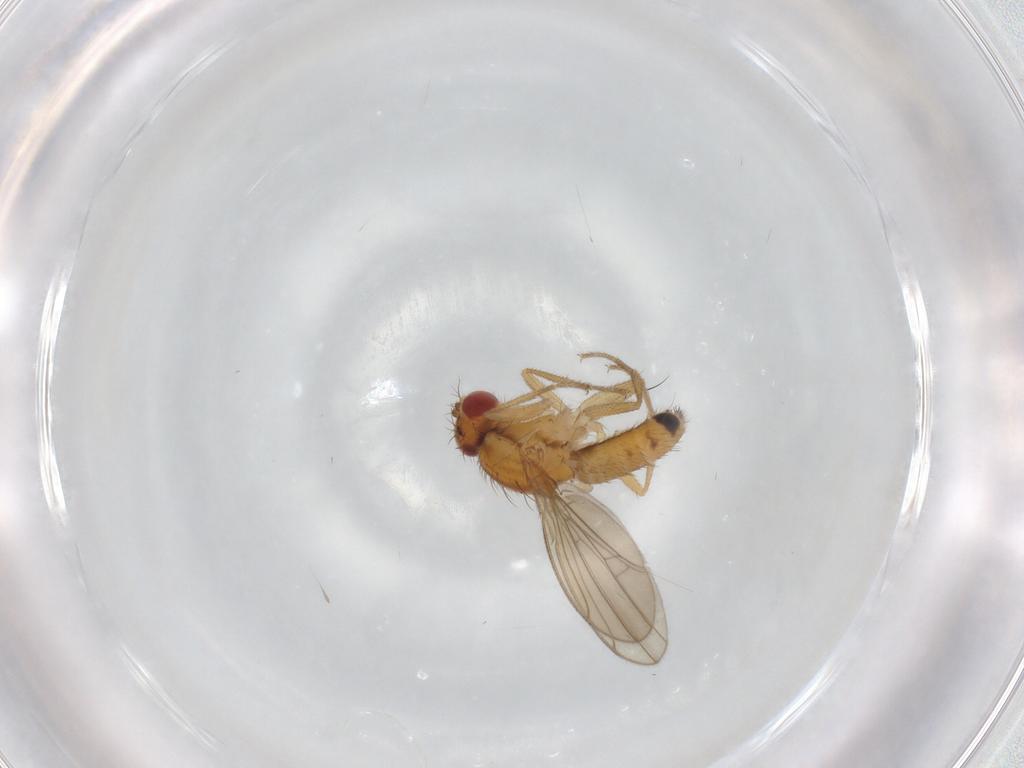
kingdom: Animalia
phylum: Arthropoda
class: Insecta
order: Diptera
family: Drosophilidae
